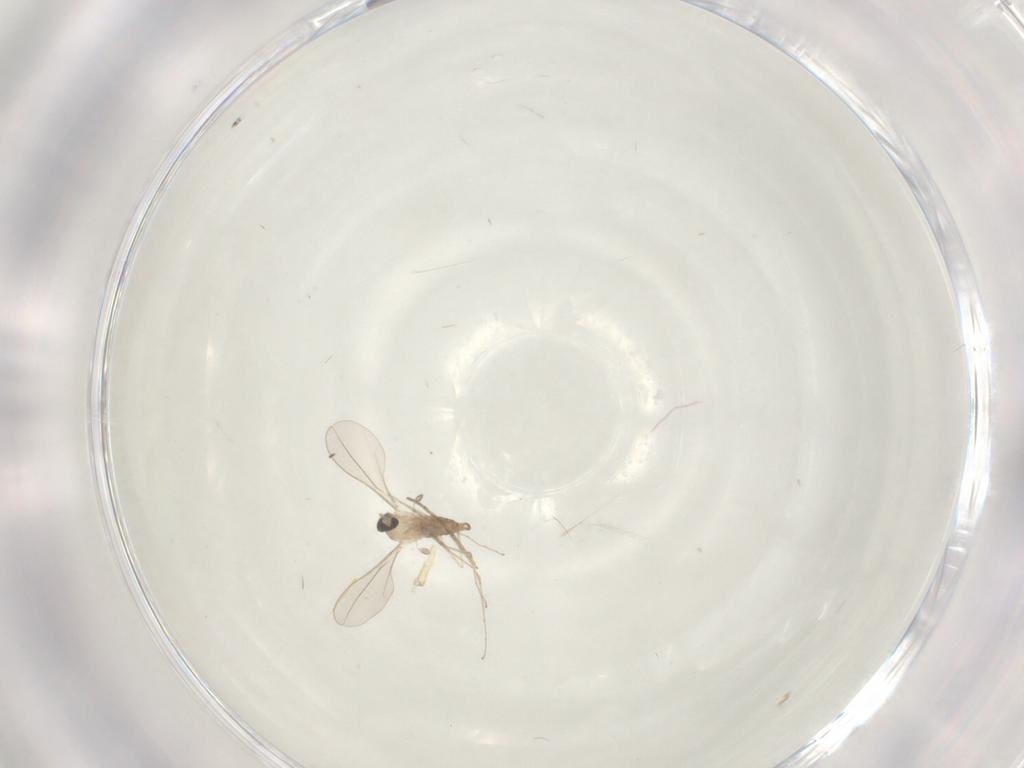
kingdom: Animalia
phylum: Arthropoda
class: Insecta
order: Diptera
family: Cecidomyiidae
